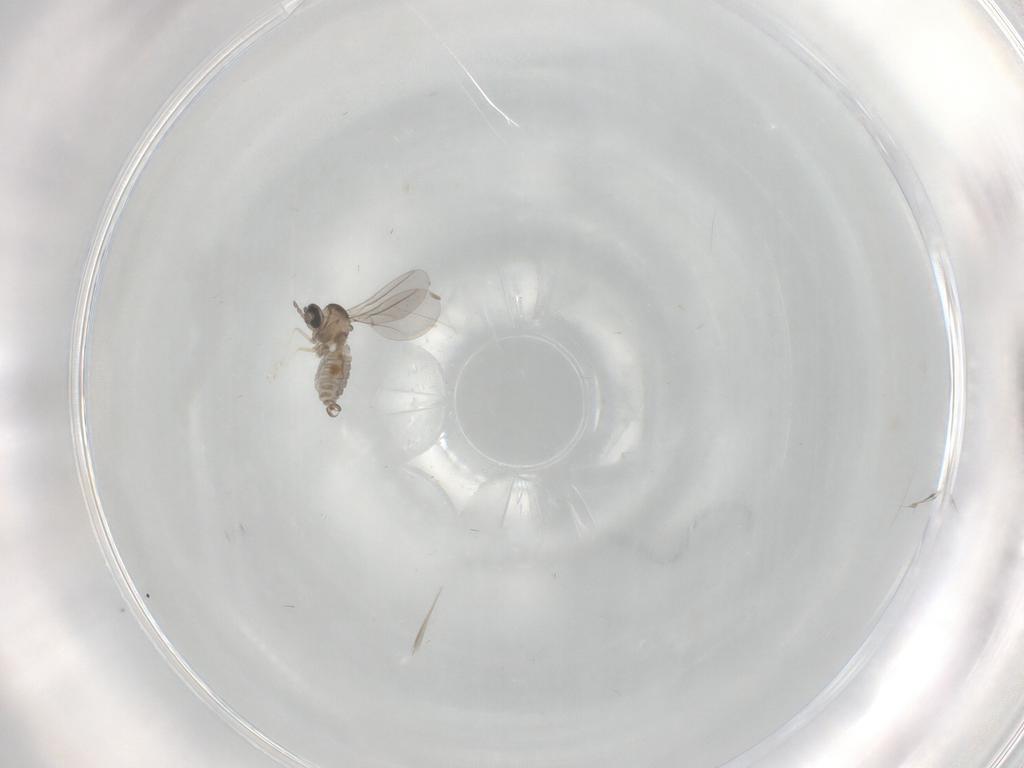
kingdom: Animalia
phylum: Arthropoda
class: Insecta
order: Diptera
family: Cecidomyiidae
